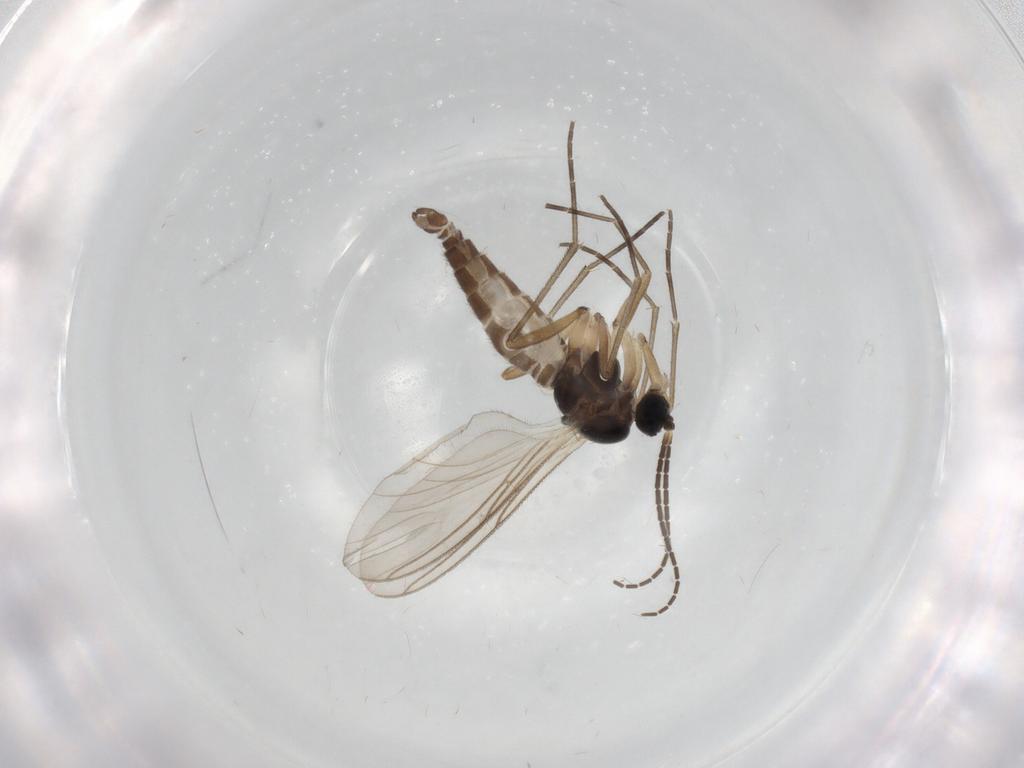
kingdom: Animalia
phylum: Arthropoda
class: Insecta
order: Diptera
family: Sciaridae
